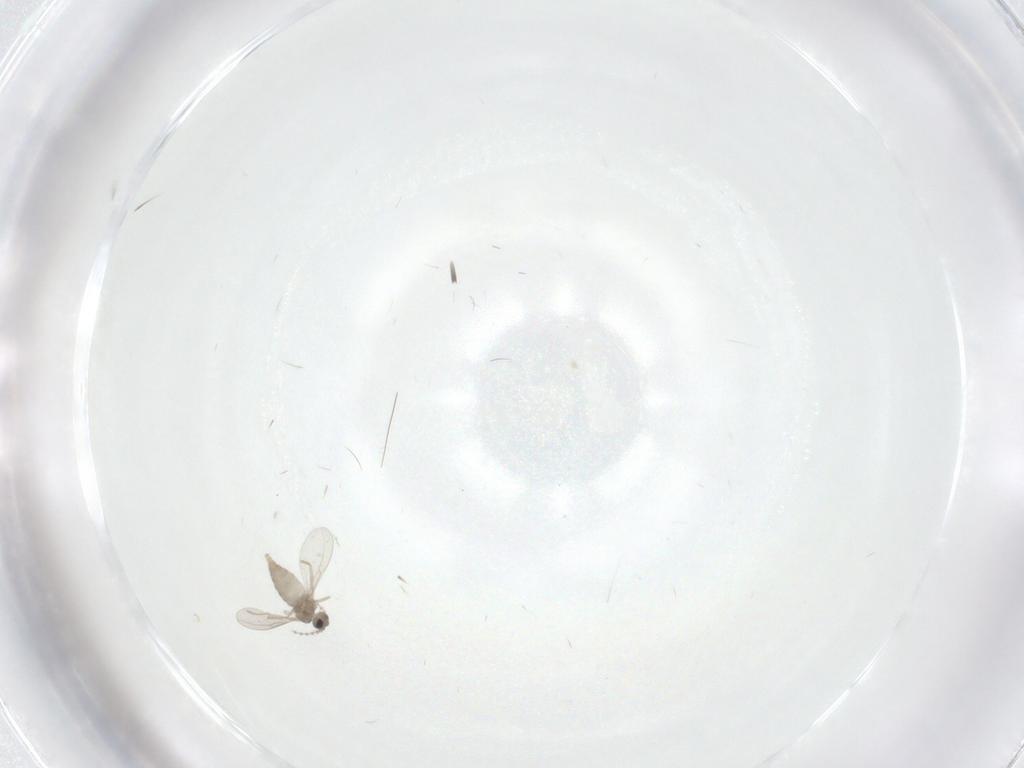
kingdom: Animalia
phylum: Arthropoda
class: Insecta
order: Diptera
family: Cecidomyiidae
